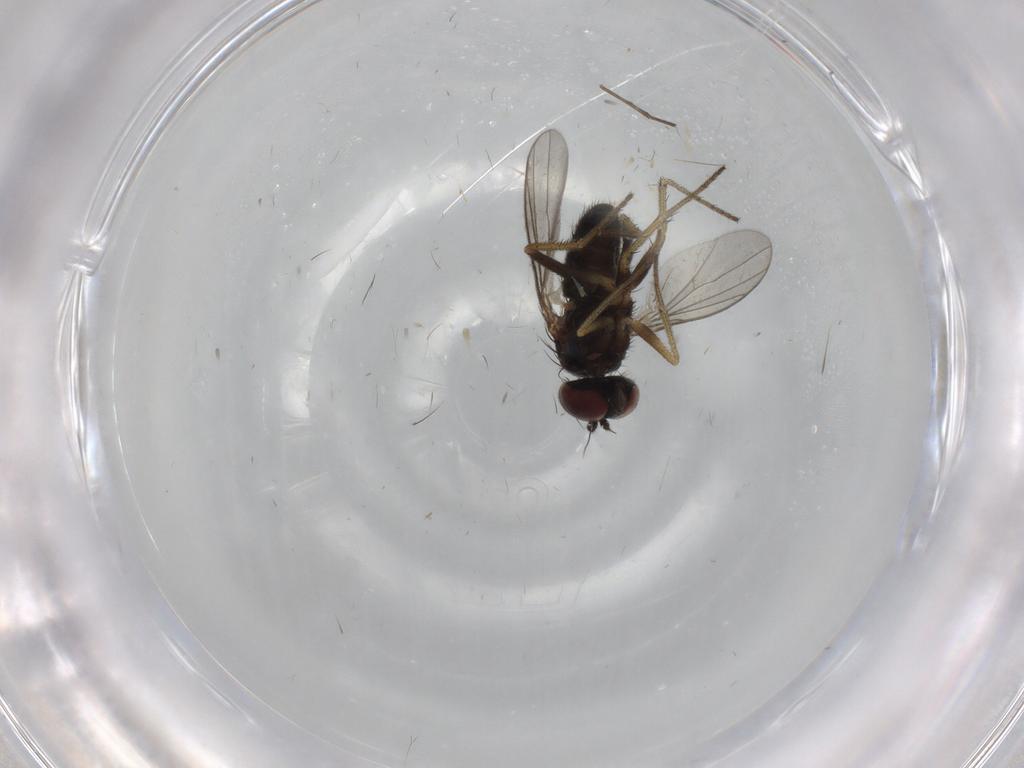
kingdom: Animalia
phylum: Arthropoda
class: Insecta
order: Diptera
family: Dolichopodidae
